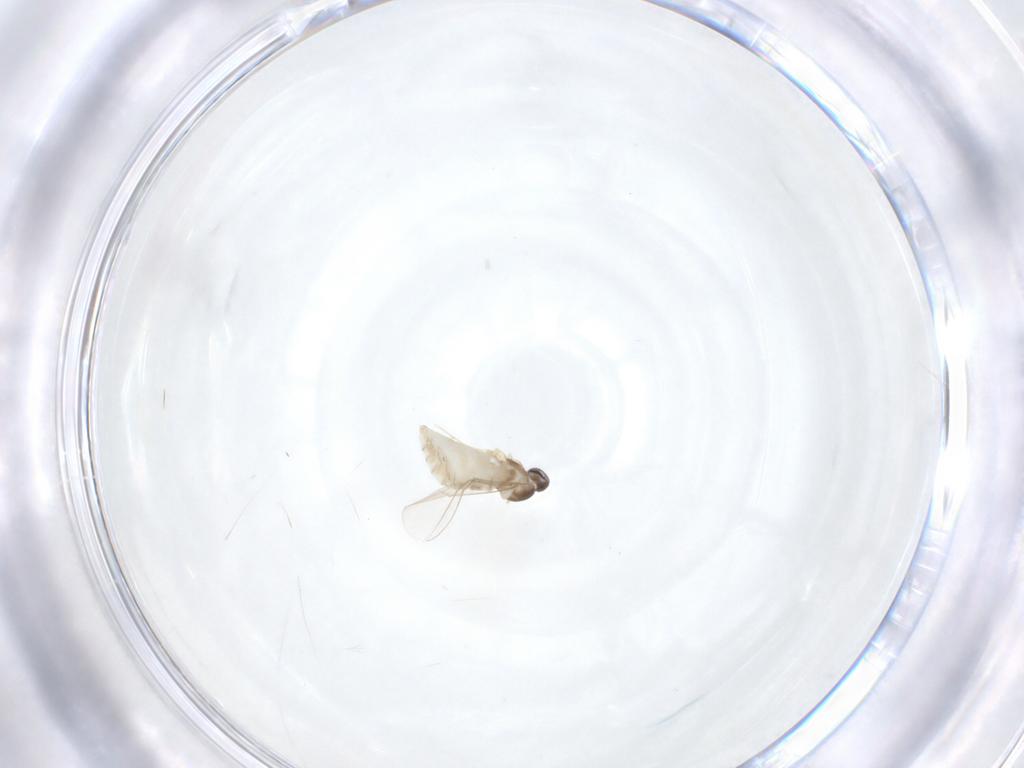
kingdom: Animalia
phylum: Arthropoda
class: Insecta
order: Diptera
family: Cecidomyiidae
